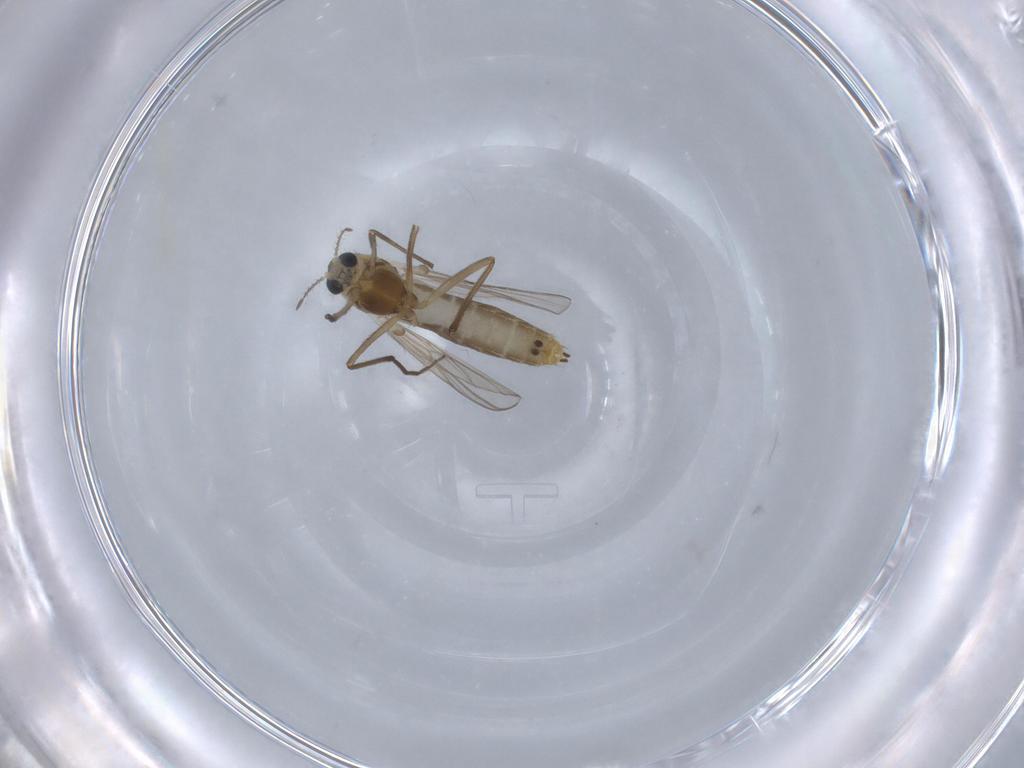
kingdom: Animalia
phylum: Arthropoda
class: Insecta
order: Diptera
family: Chironomidae
